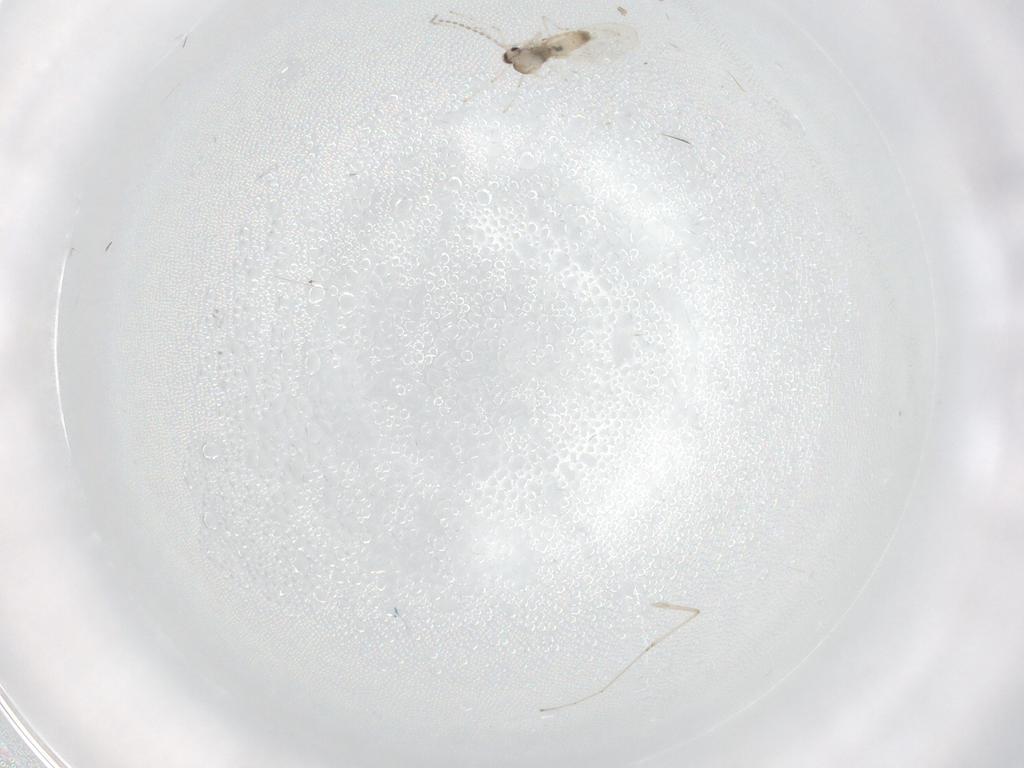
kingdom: Animalia
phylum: Arthropoda
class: Insecta
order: Diptera
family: Cecidomyiidae
